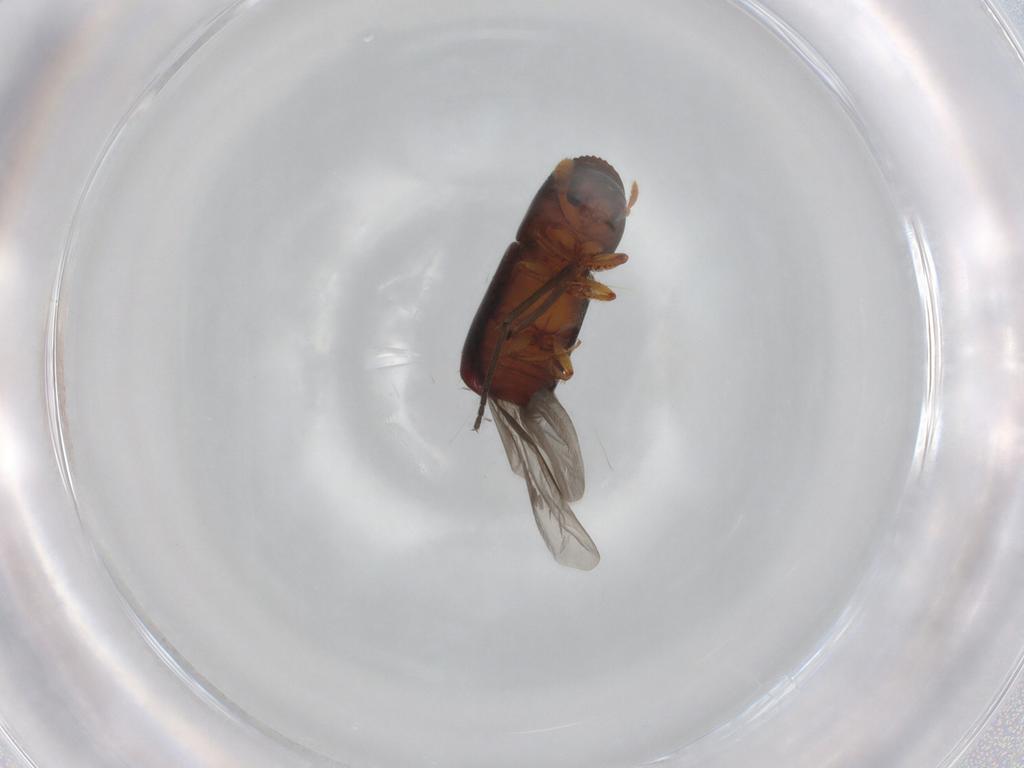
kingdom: Animalia
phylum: Arthropoda
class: Insecta
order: Coleoptera
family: Curculionidae
